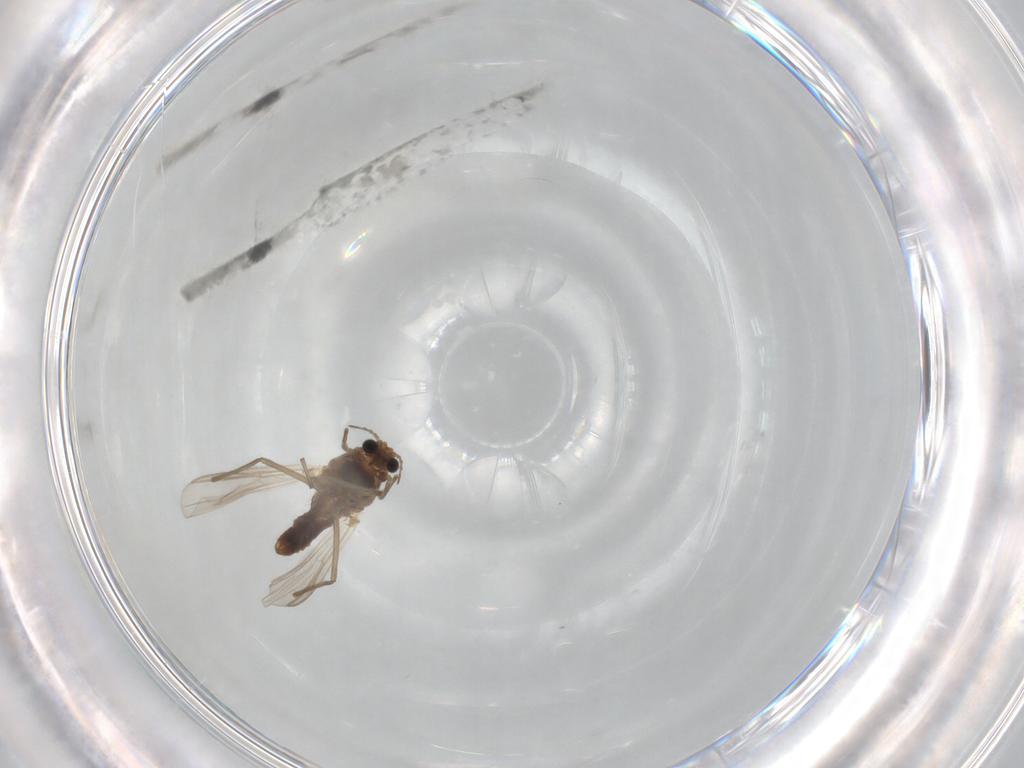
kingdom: Animalia
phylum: Arthropoda
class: Insecta
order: Diptera
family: Chironomidae
